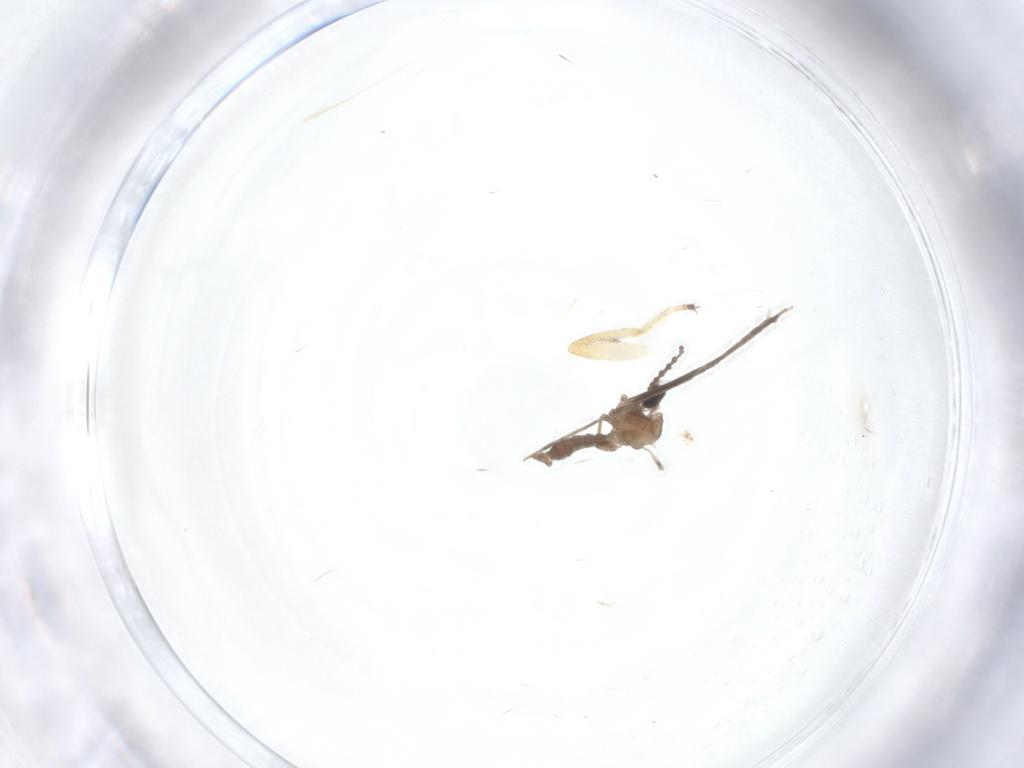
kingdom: Animalia
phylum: Arthropoda
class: Insecta
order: Diptera
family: Cecidomyiidae
